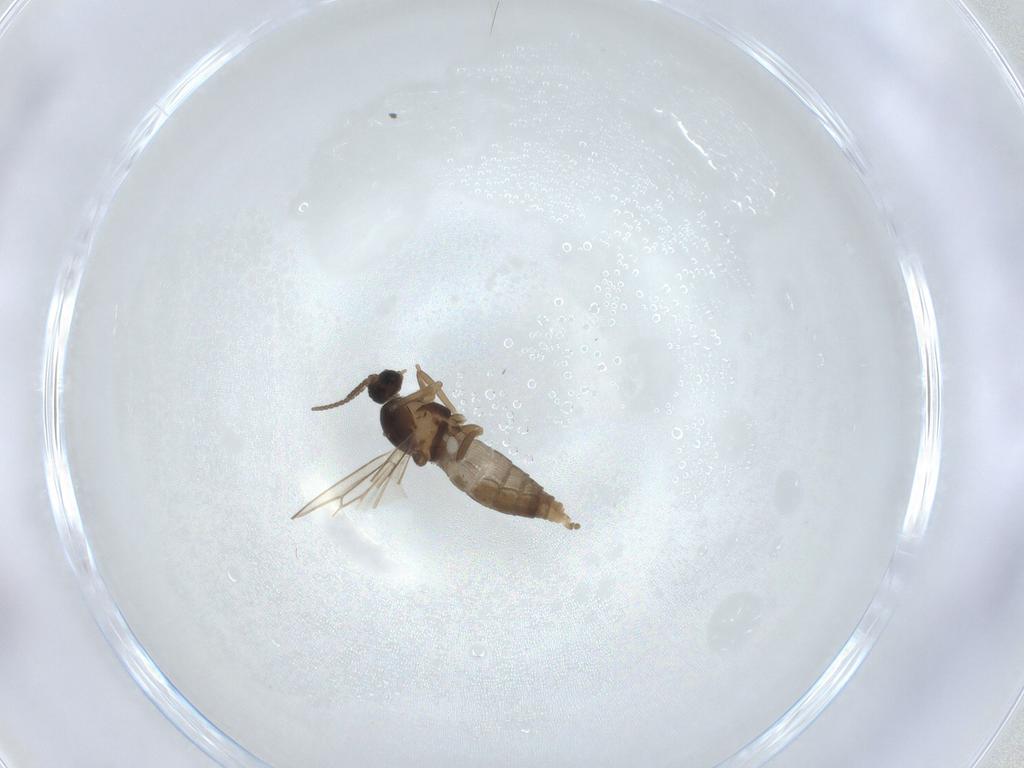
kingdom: Animalia
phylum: Arthropoda
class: Insecta
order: Diptera
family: Cecidomyiidae
